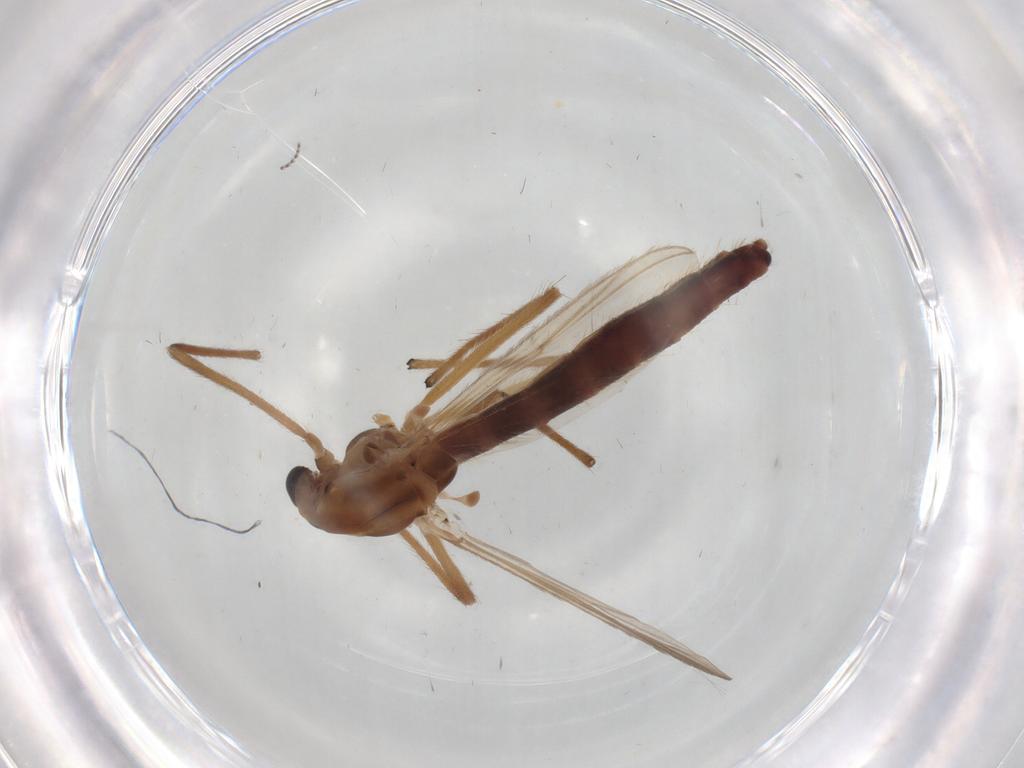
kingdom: Animalia
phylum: Arthropoda
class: Insecta
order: Diptera
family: Chironomidae
